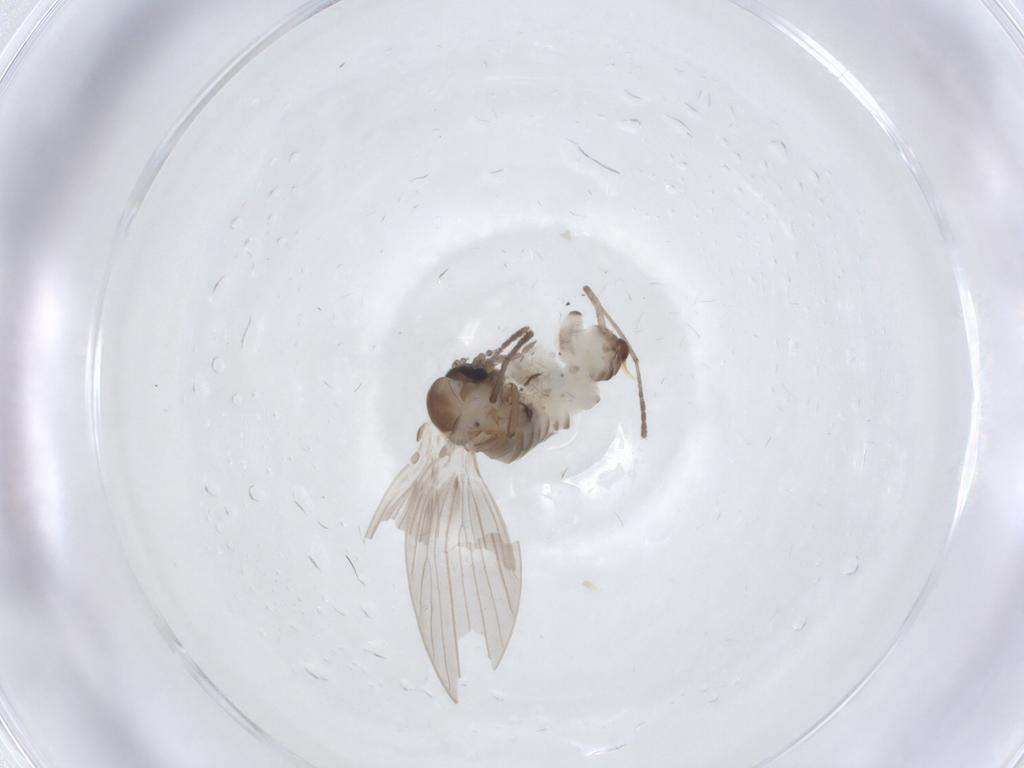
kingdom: Animalia
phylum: Arthropoda
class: Insecta
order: Diptera
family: Psychodidae
